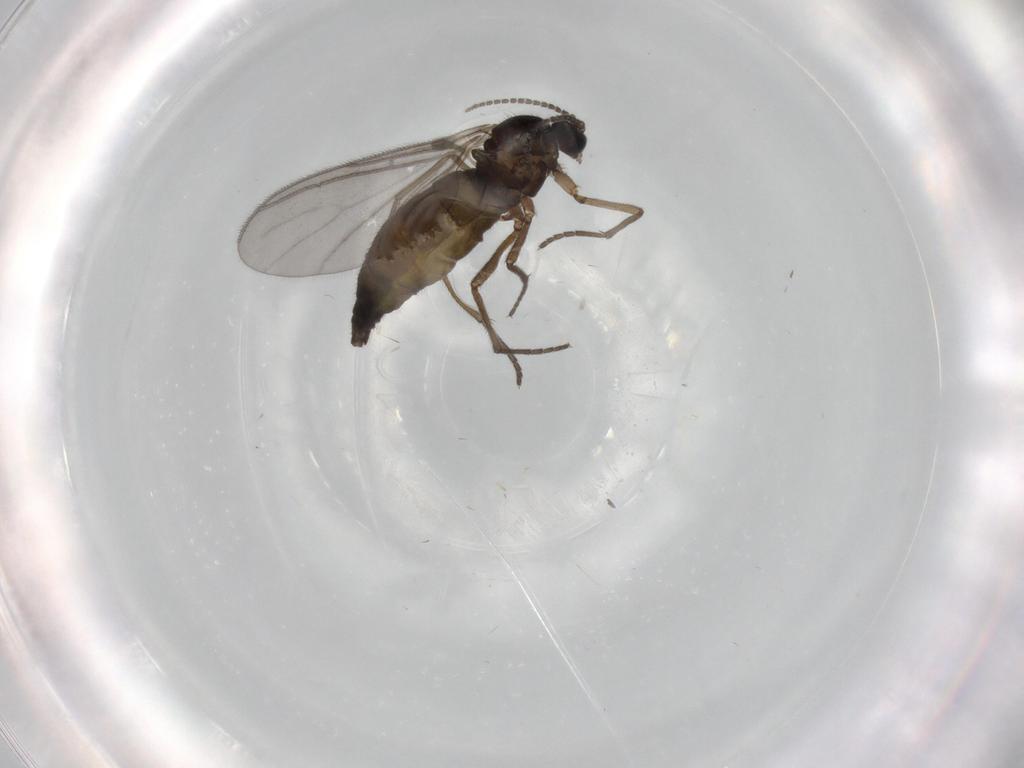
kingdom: Animalia
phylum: Arthropoda
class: Insecta
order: Diptera
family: Sciaridae
